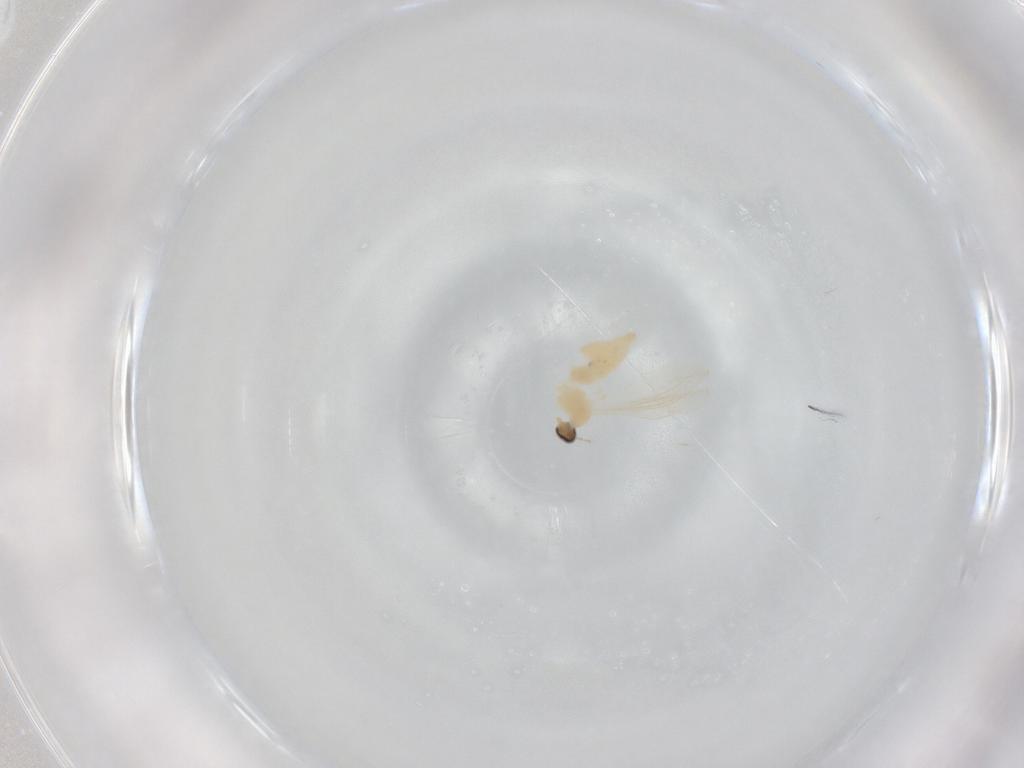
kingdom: Animalia
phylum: Arthropoda
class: Insecta
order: Diptera
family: Cecidomyiidae
